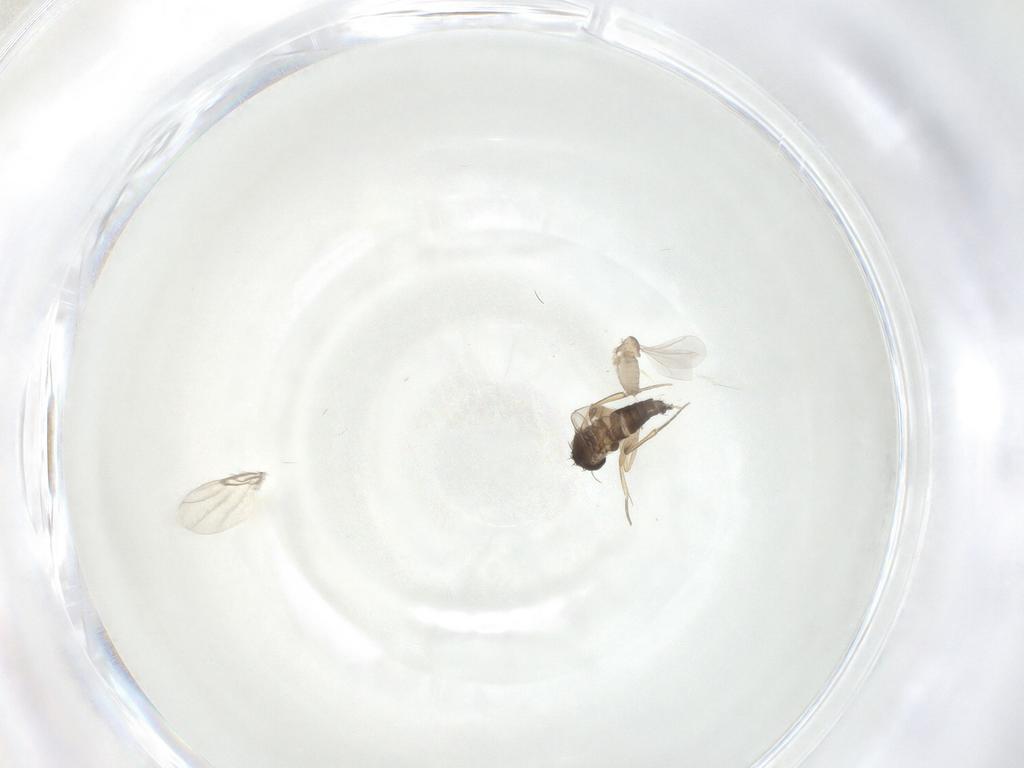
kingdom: Animalia
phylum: Arthropoda
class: Insecta
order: Diptera
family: Cecidomyiidae
